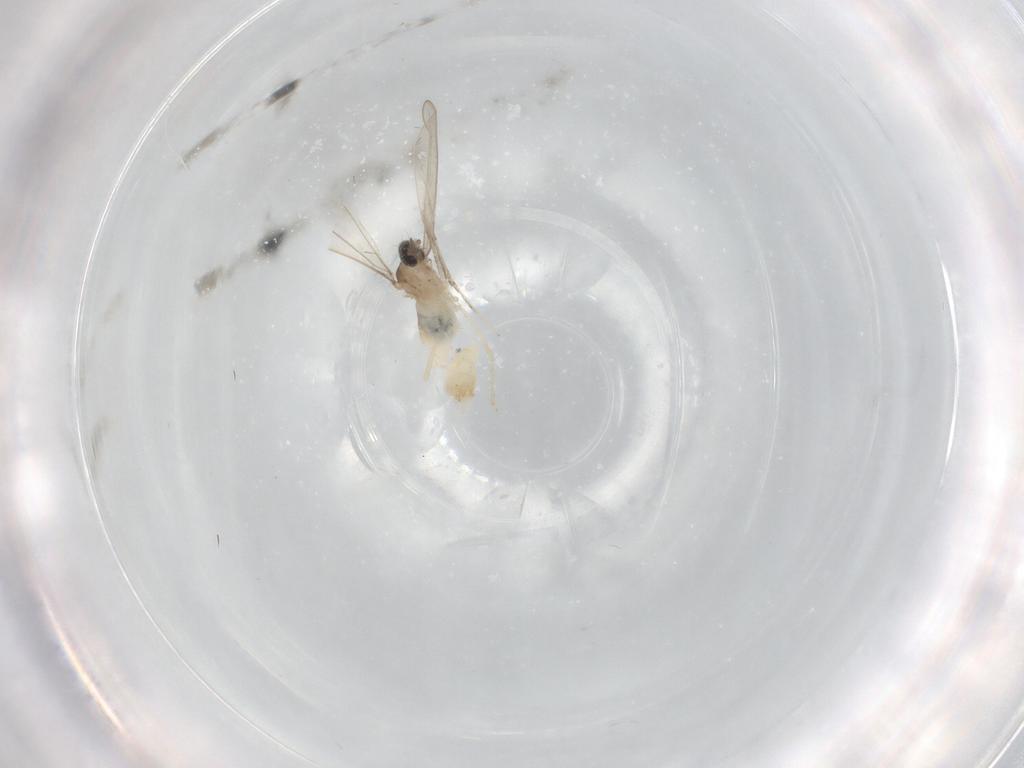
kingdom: Animalia
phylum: Arthropoda
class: Insecta
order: Diptera
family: Cecidomyiidae
